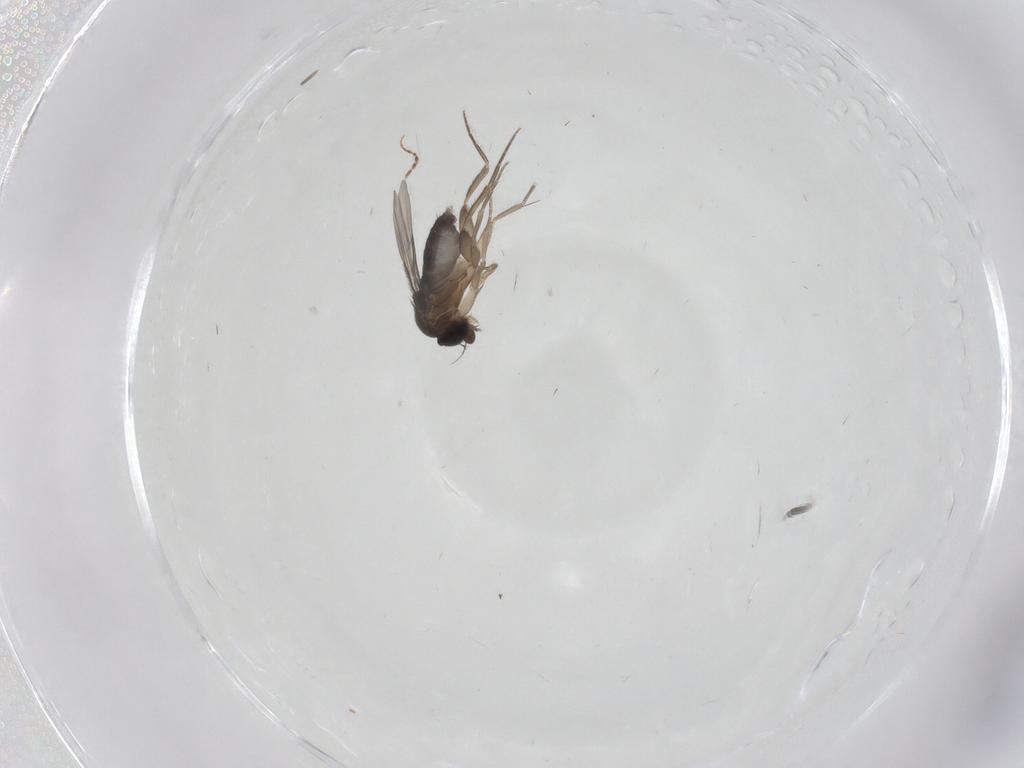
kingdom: Animalia
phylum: Arthropoda
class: Insecta
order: Diptera
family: Phoridae
